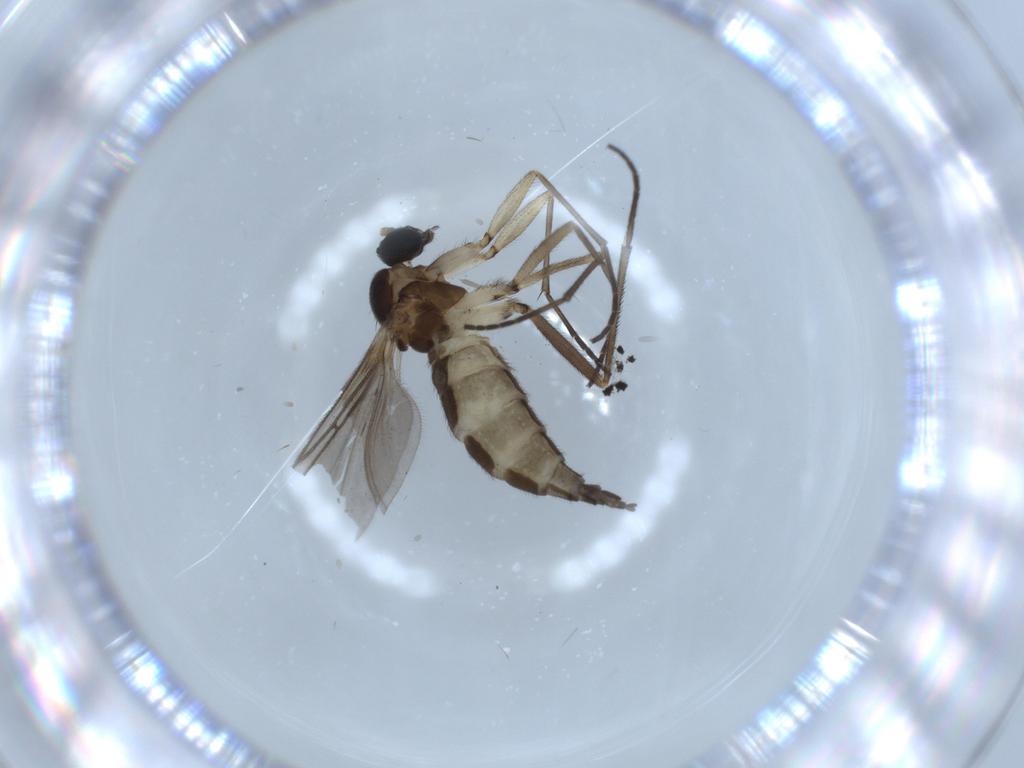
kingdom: Animalia
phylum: Arthropoda
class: Insecta
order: Diptera
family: Sciaridae
